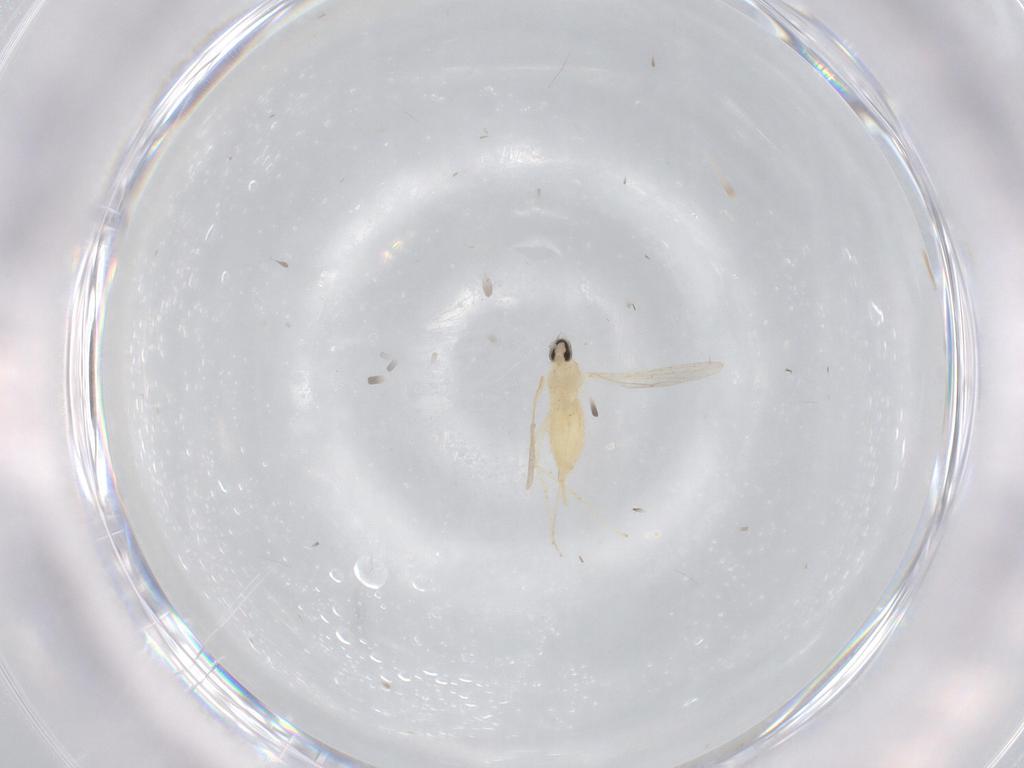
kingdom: Animalia
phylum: Arthropoda
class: Insecta
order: Diptera
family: Cecidomyiidae
